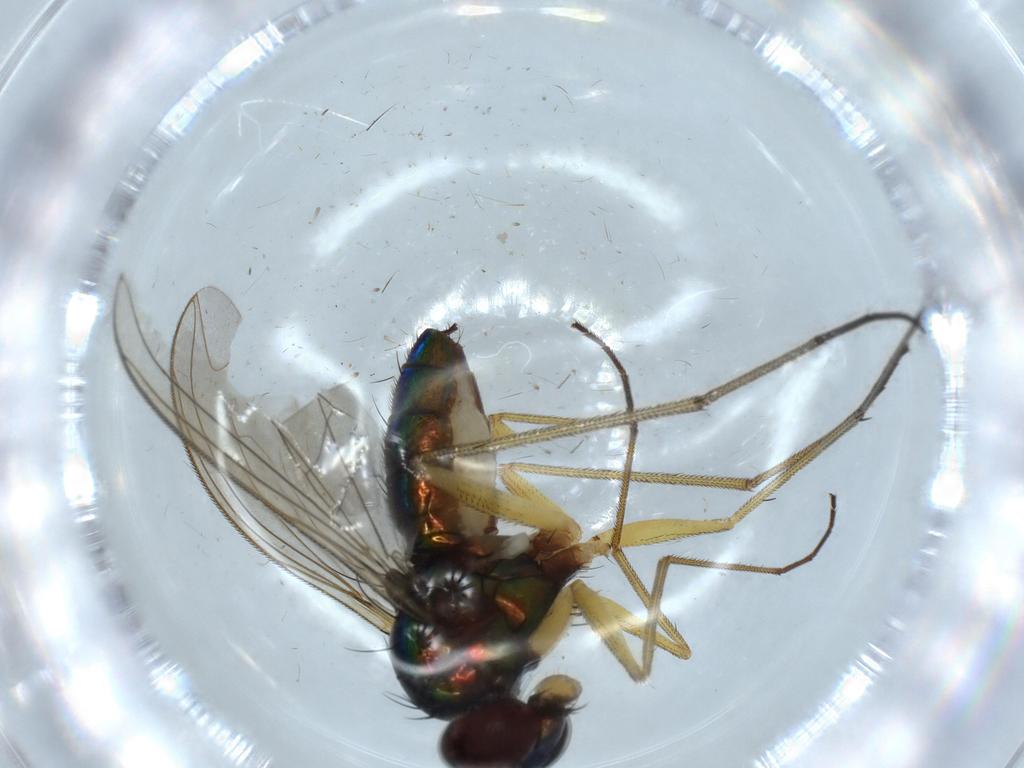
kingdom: Animalia
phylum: Arthropoda
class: Insecta
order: Diptera
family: Dolichopodidae
